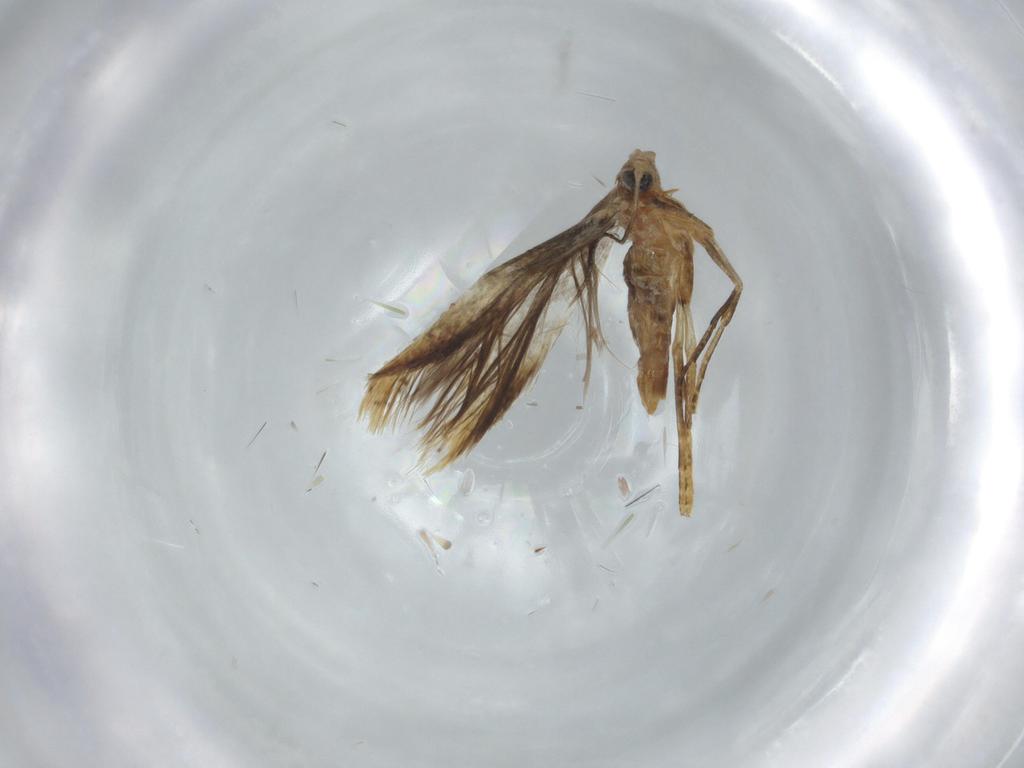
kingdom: Animalia
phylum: Arthropoda
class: Insecta
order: Lepidoptera
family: Tischeriidae
